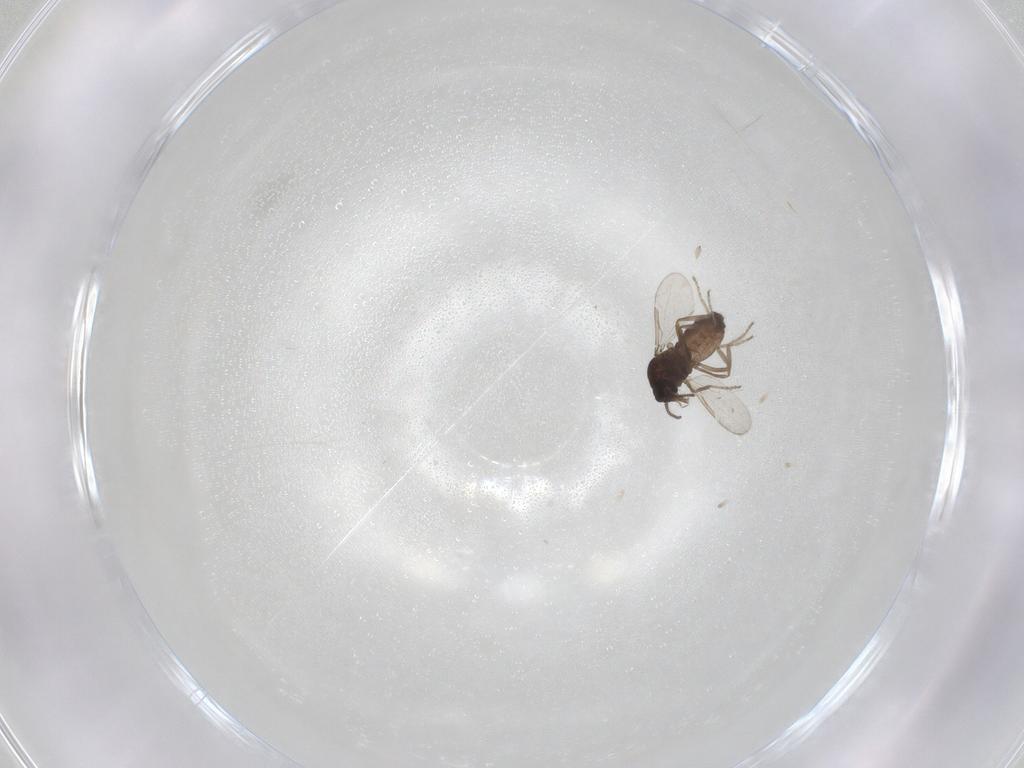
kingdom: Animalia
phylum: Arthropoda
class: Insecta
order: Diptera
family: Ceratopogonidae
